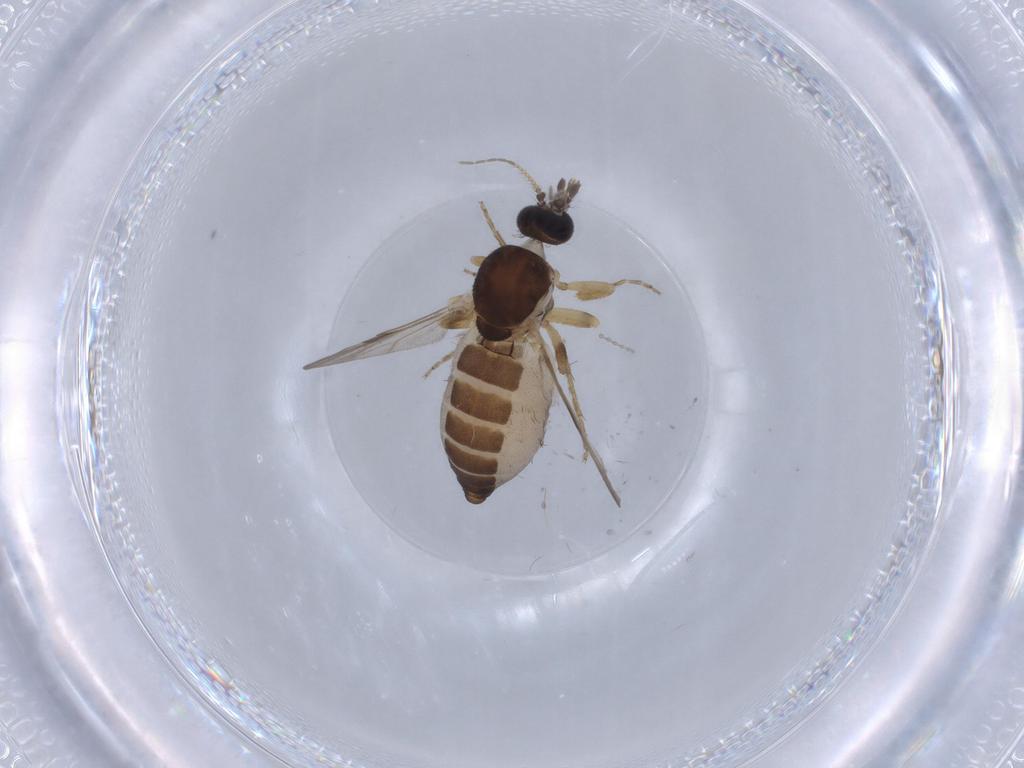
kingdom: Animalia
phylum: Arthropoda
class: Insecta
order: Diptera
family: Ceratopogonidae
